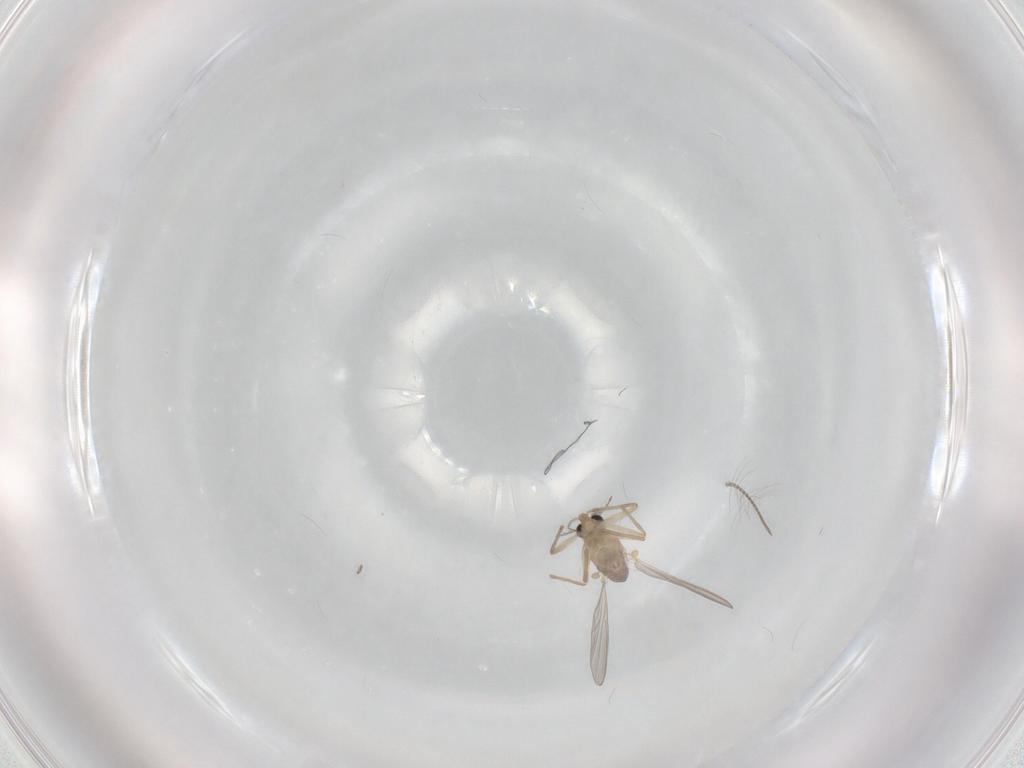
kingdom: Animalia
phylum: Arthropoda
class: Insecta
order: Diptera
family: Chironomidae
